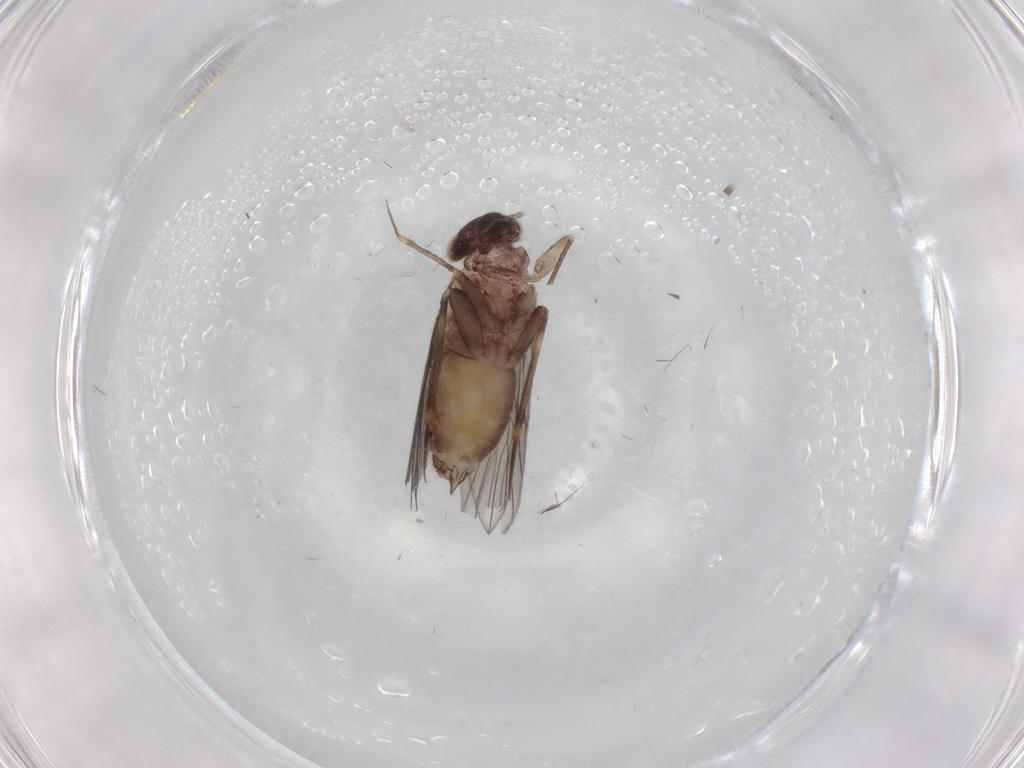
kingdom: Animalia
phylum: Arthropoda
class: Insecta
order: Psocodea
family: Lepidopsocidae
